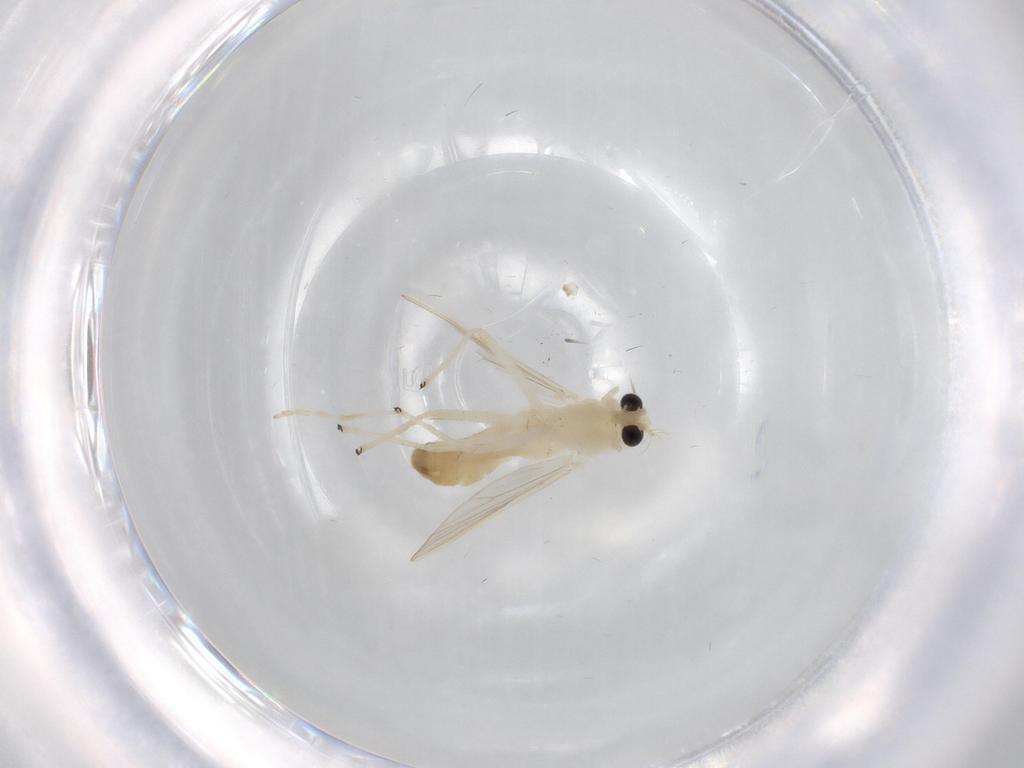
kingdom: Animalia
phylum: Arthropoda
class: Insecta
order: Diptera
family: Chironomidae
